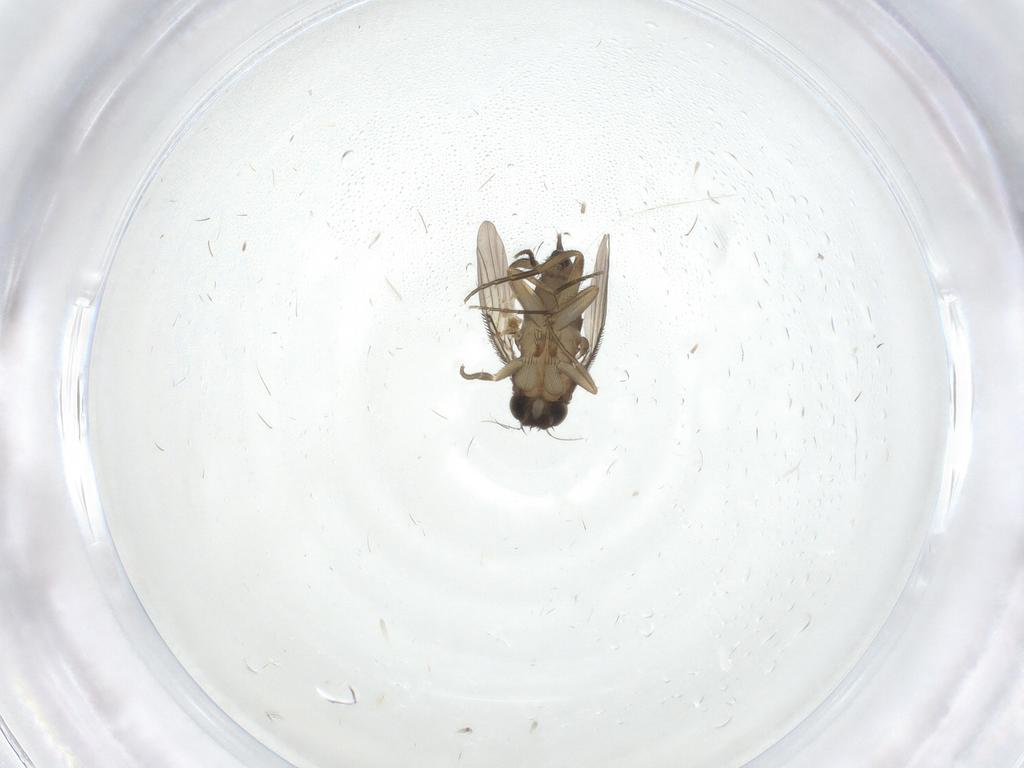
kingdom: Animalia
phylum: Arthropoda
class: Insecta
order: Diptera
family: Phoridae
